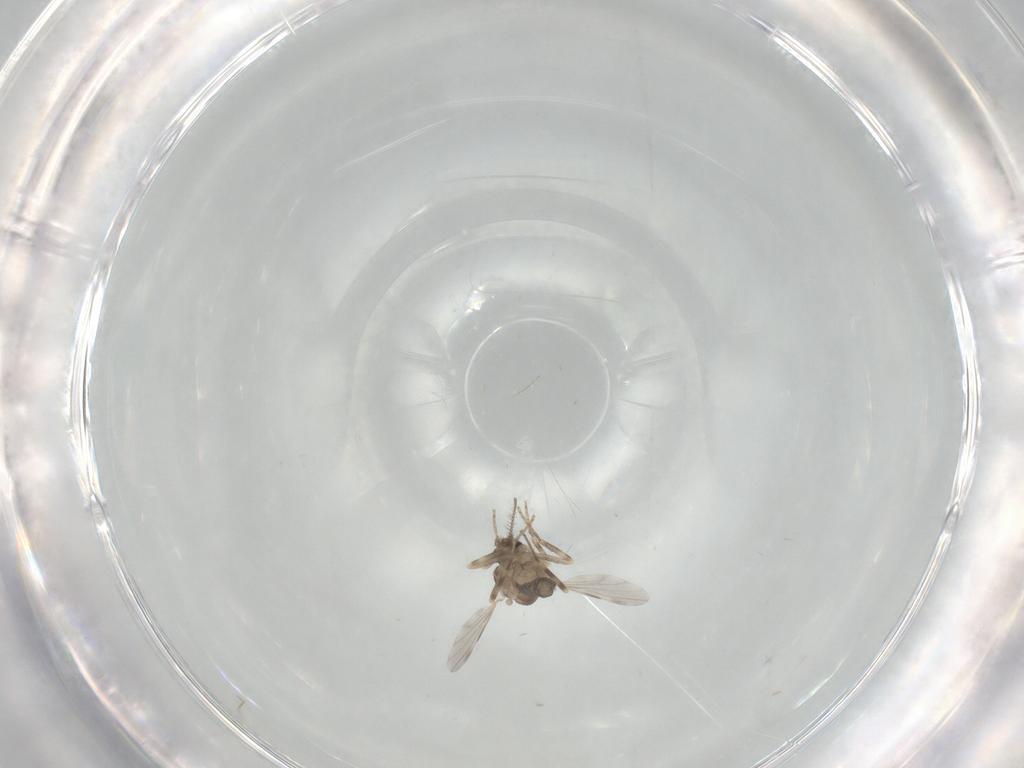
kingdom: Animalia
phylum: Arthropoda
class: Insecta
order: Diptera
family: Ceratopogonidae
